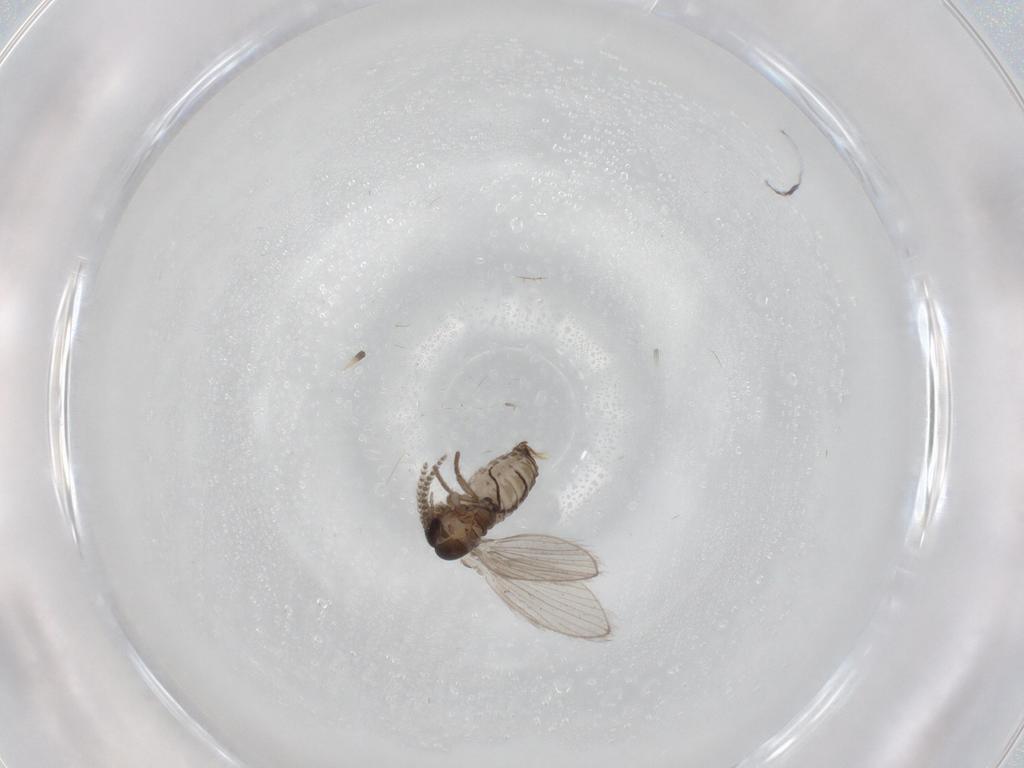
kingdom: Animalia
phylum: Arthropoda
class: Insecta
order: Diptera
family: Psychodidae
